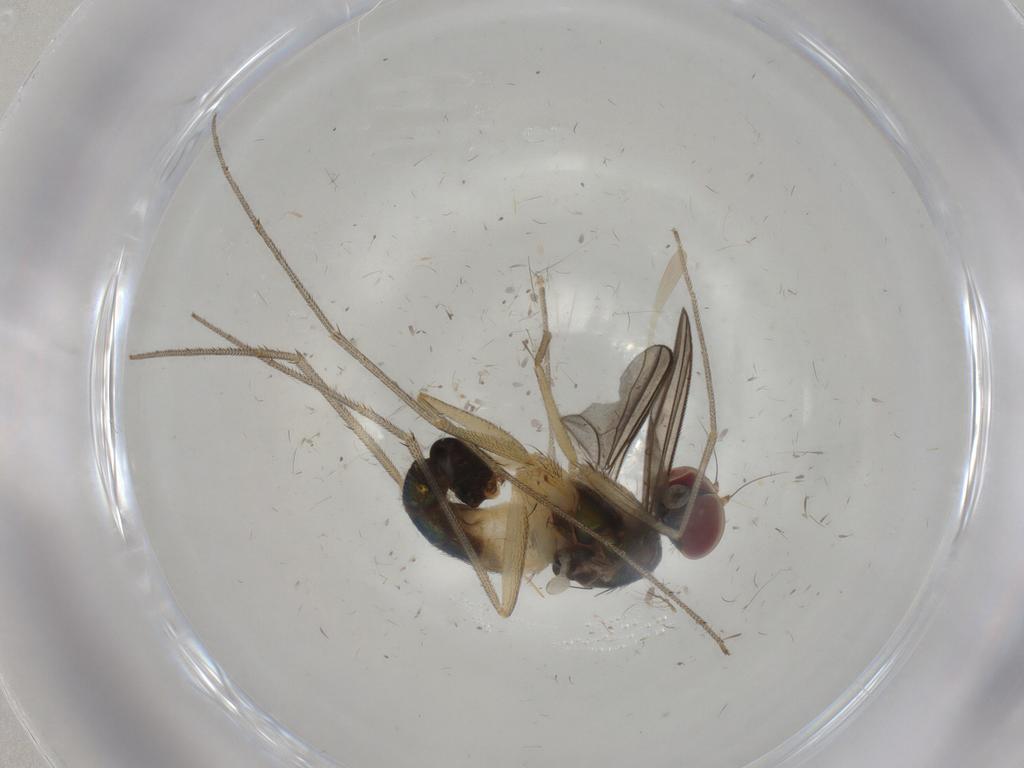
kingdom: Animalia
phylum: Arthropoda
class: Insecta
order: Diptera
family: Dolichopodidae
